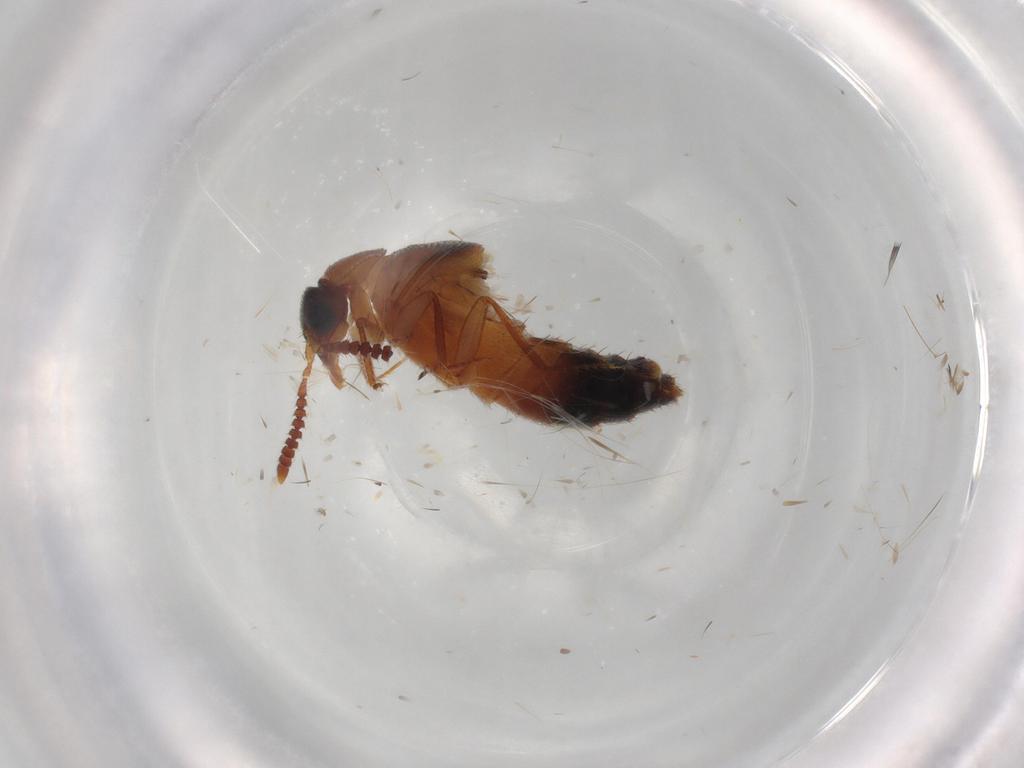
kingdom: Animalia
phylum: Arthropoda
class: Insecta
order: Coleoptera
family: Staphylinidae
